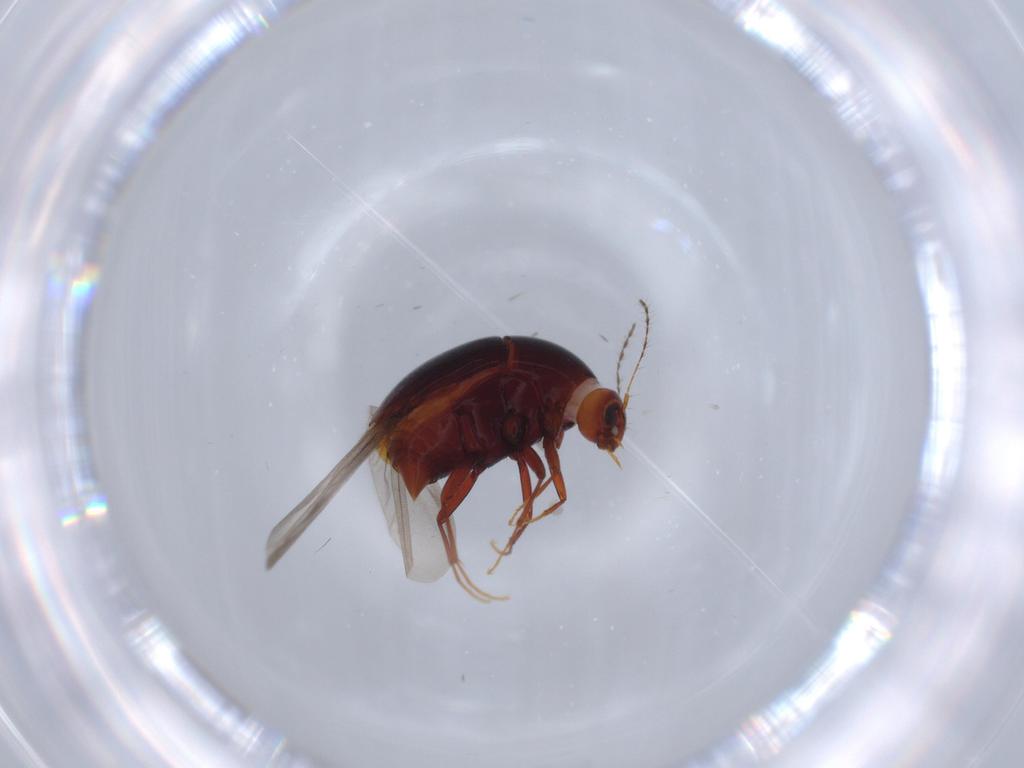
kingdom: Animalia
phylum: Arthropoda
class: Insecta
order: Coleoptera
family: Staphylinidae
